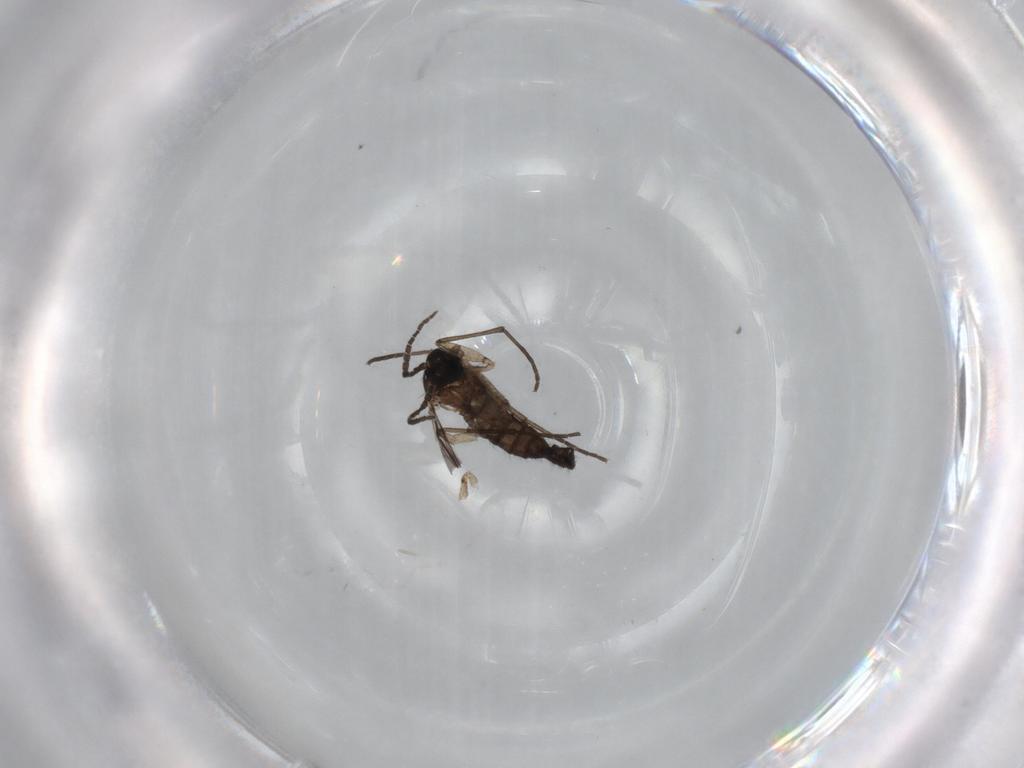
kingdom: Animalia
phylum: Arthropoda
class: Insecta
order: Diptera
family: Sciaridae
